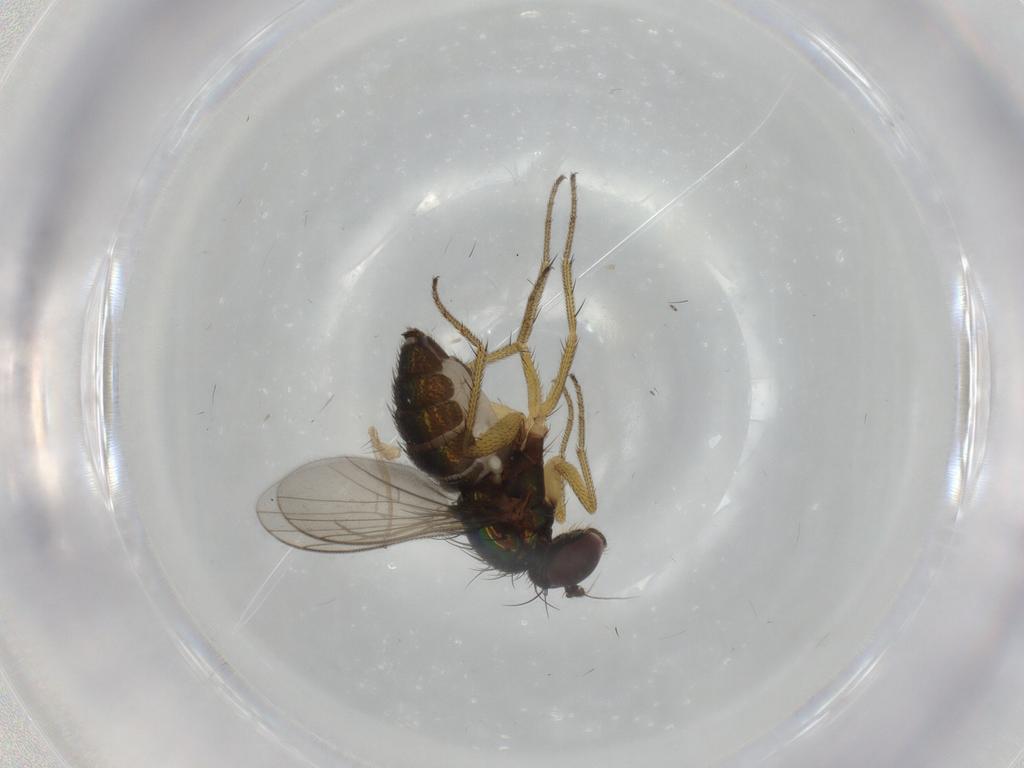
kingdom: Animalia
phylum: Arthropoda
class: Insecta
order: Diptera
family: Drosophilidae
